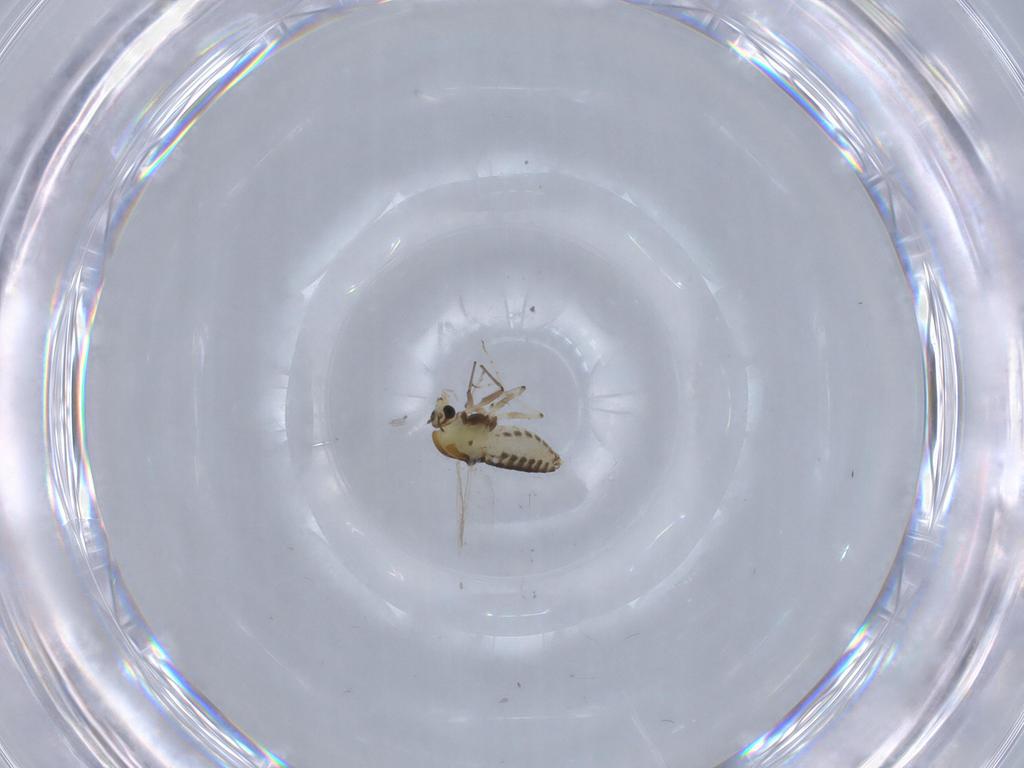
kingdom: Animalia
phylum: Arthropoda
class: Insecta
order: Diptera
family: Chironomidae
